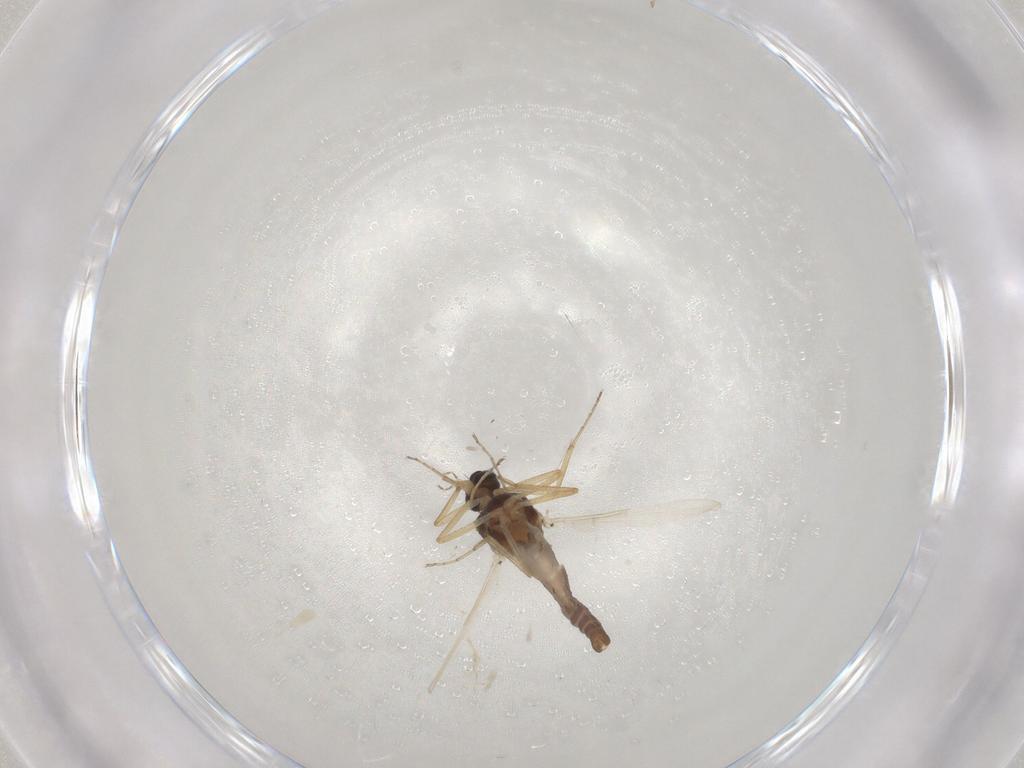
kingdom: Animalia
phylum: Arthropoda
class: Insecta
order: Diptera
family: Ceratopogonidae
